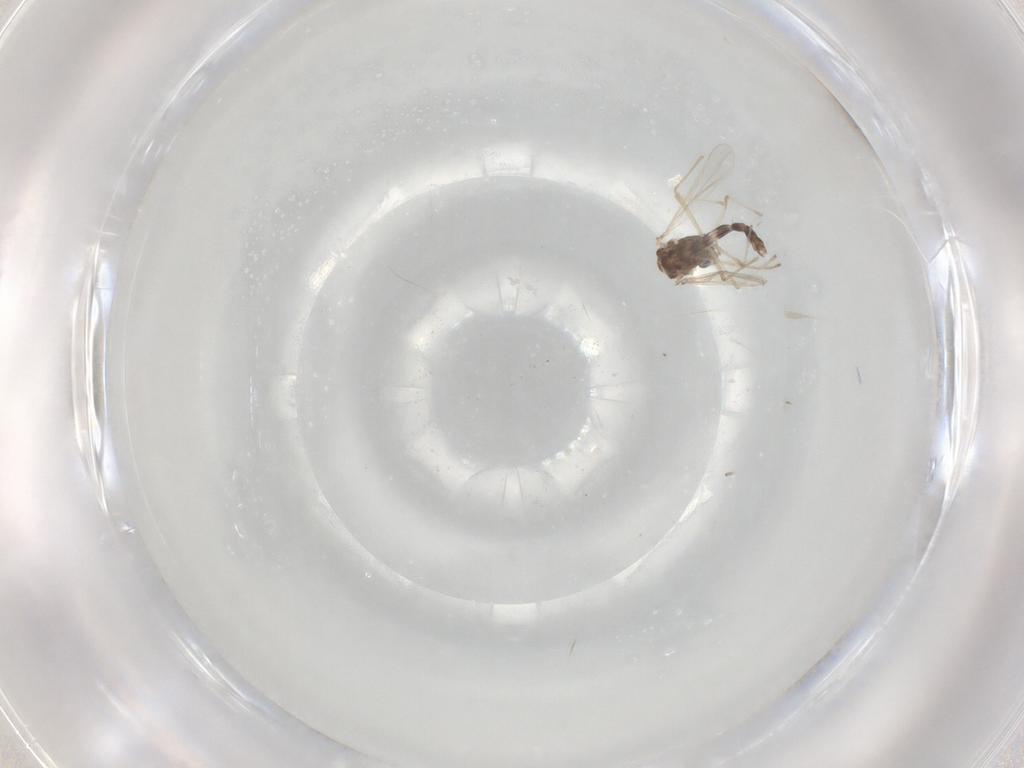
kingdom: Animalia
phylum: Arthropoda
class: Insecta
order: Diptera
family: Chironomidae
